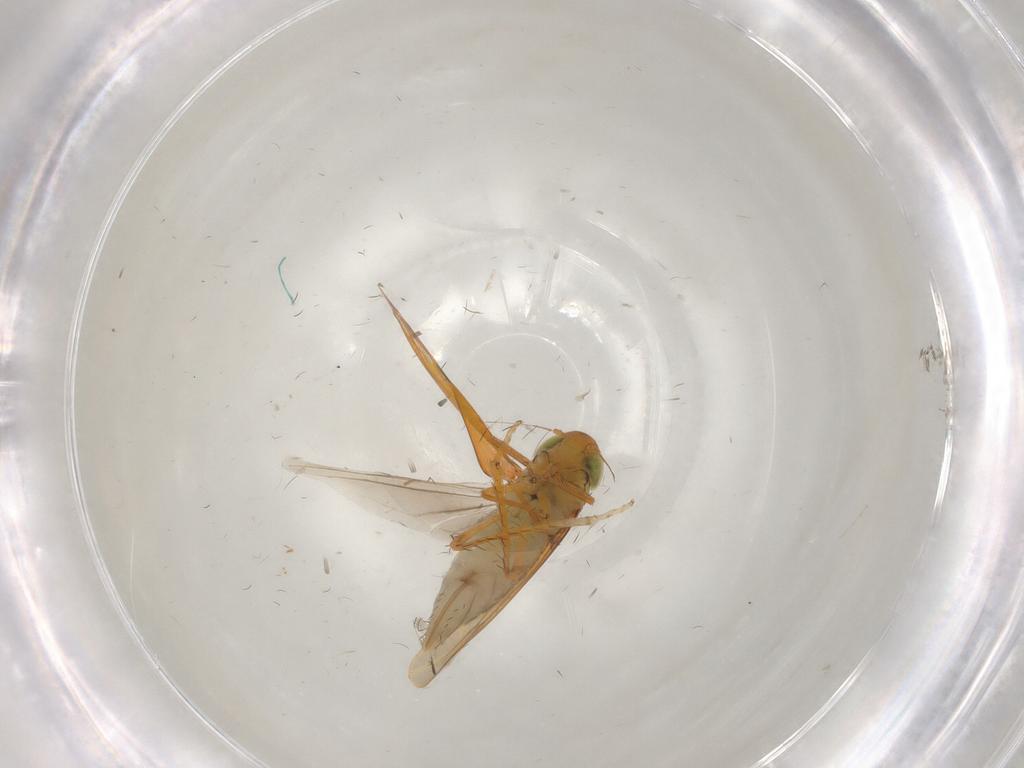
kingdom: Animalia
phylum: Arthropoda
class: Insecta
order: Hemiptera
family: Cicadellidae
